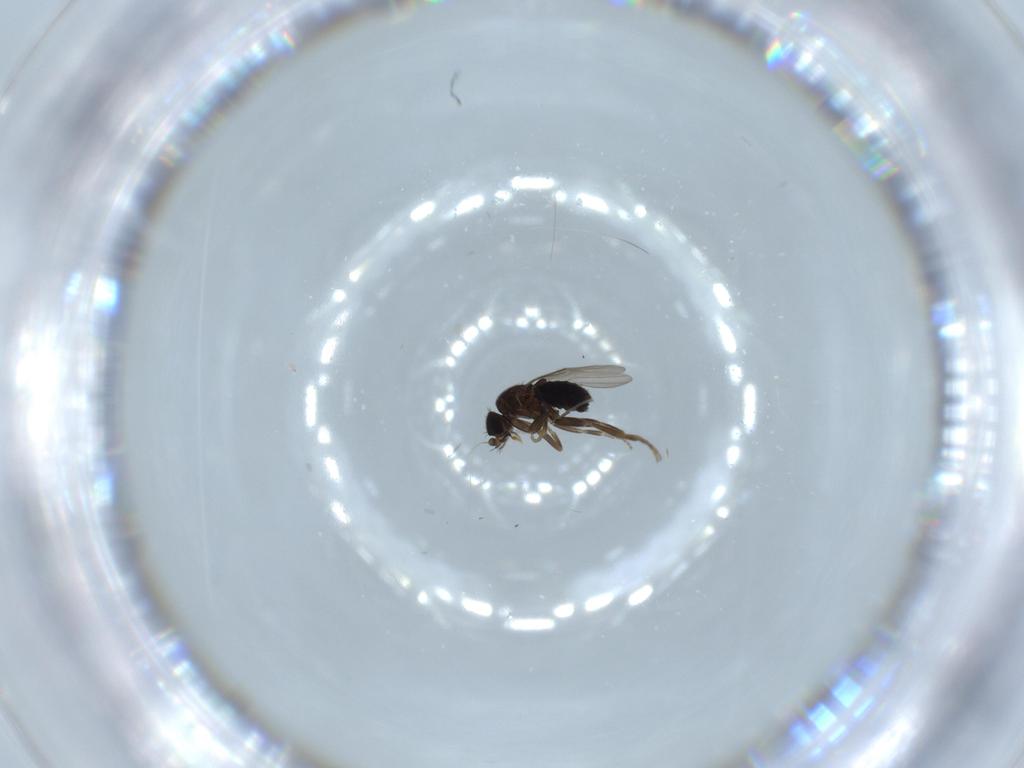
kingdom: Animalia
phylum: Arthropoda
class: Insecta
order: Diptera
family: Phoridae
